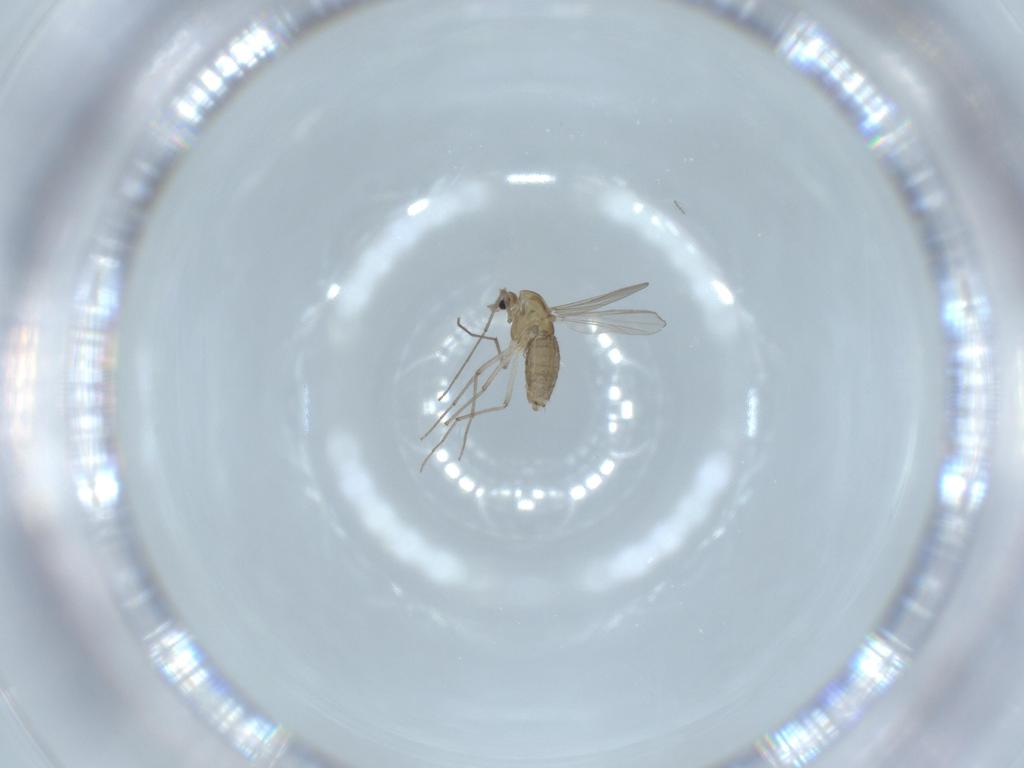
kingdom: Animalia
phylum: Arthropoda
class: Insecta
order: Diptera
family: Chironomidae
